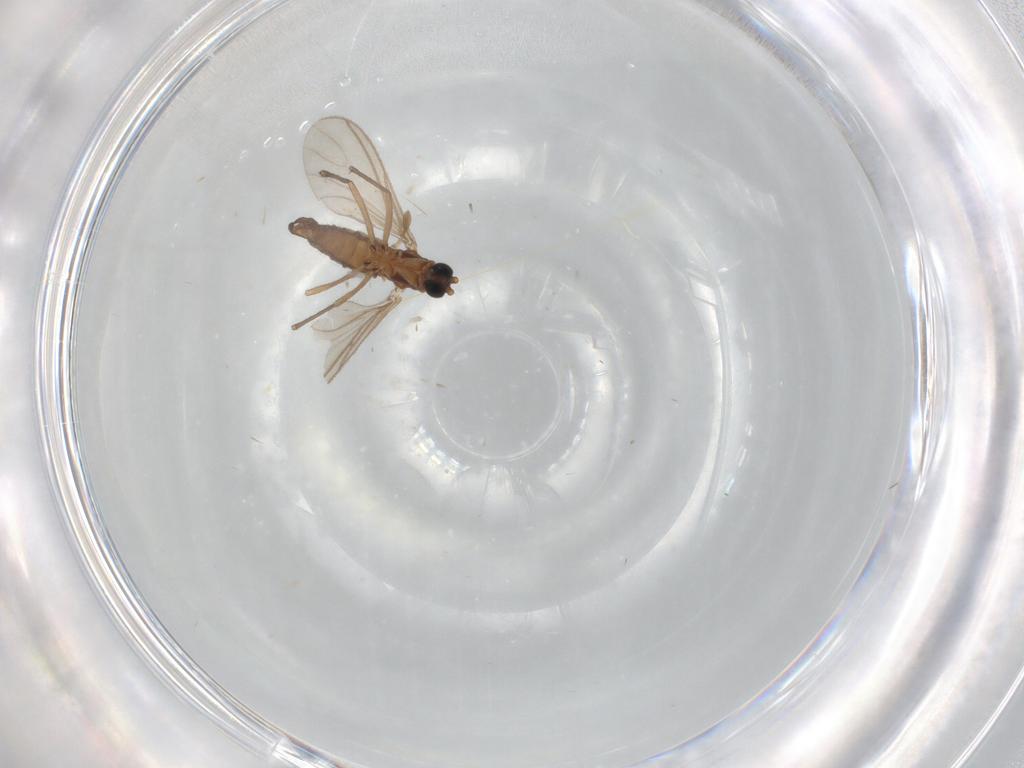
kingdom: Animalia
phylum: Arthropoda
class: Insecta
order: Diptera
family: Sciaridae
